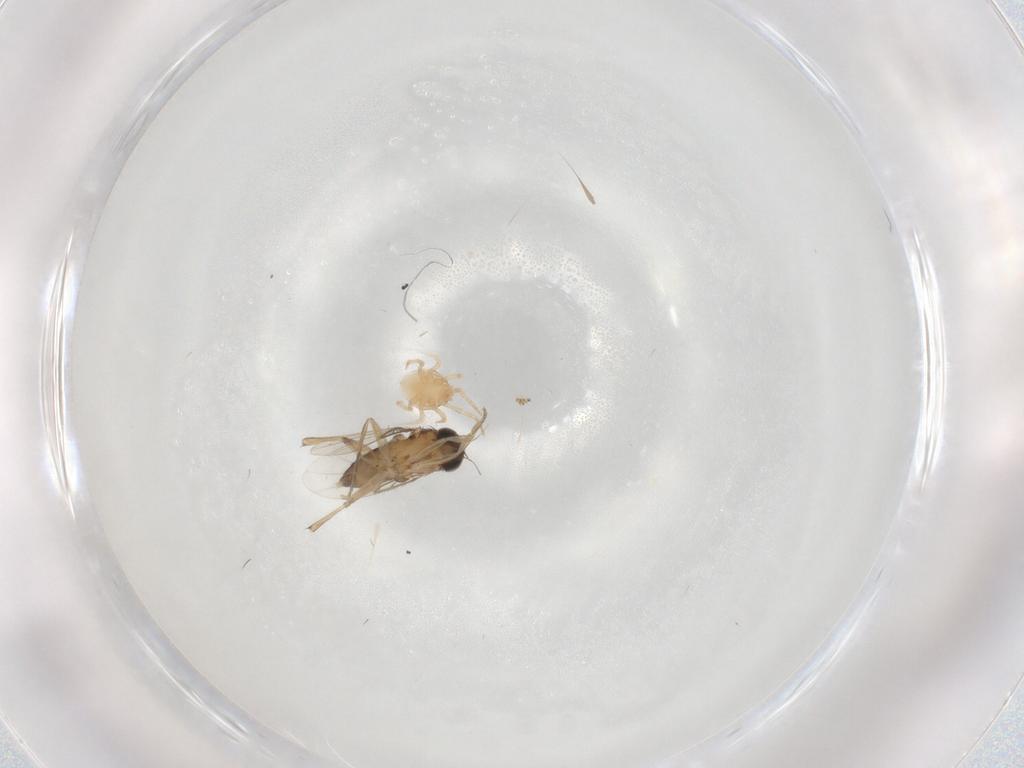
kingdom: Animalia
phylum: Arthropoda
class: Insecta
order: Diptera
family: Phoridae
